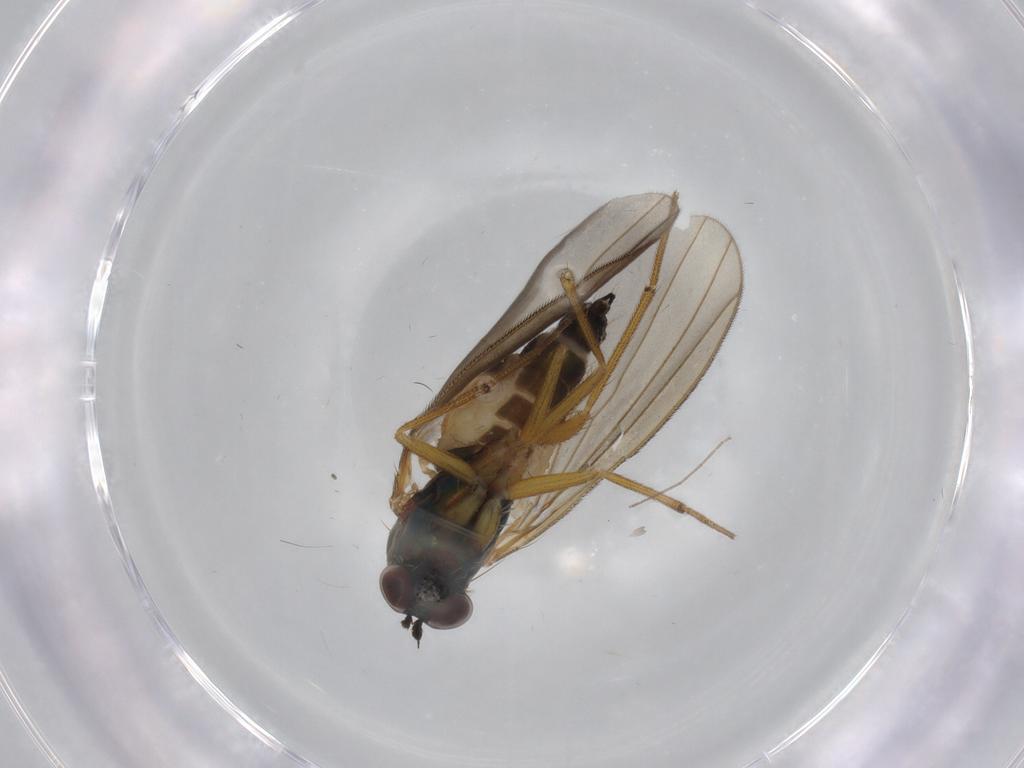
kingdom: Animalia
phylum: Arthropoda
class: Insecta
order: Diptera
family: Dolichopodidae
